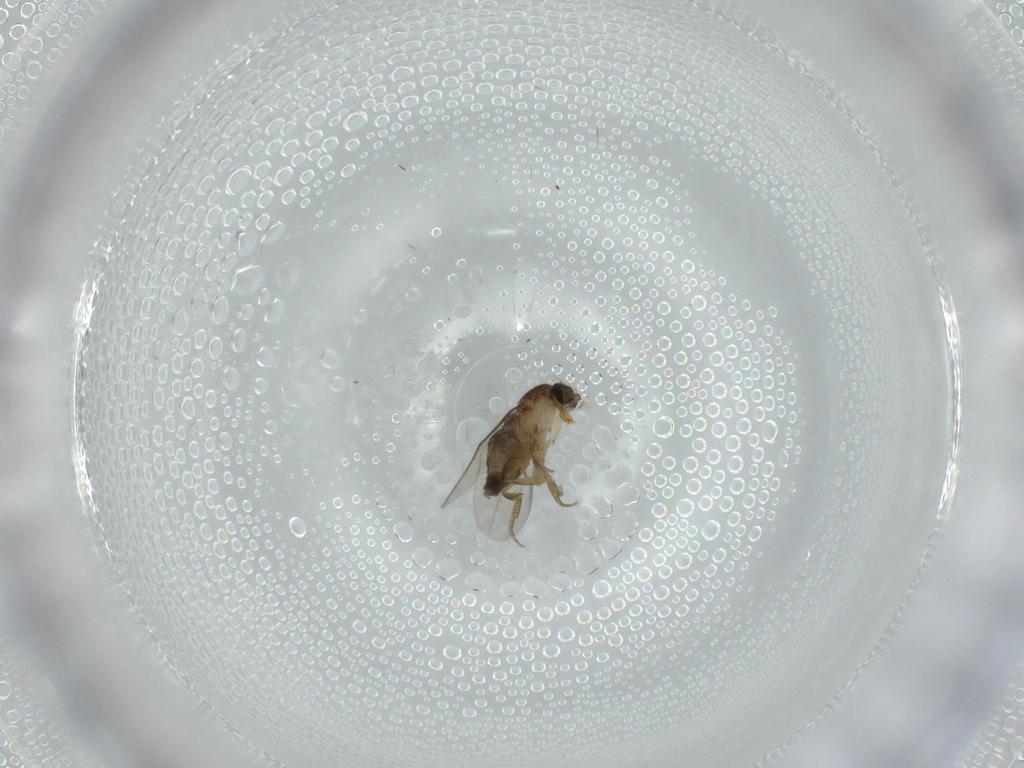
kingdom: Animalia
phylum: Arthropoda
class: Insecta
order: Diptera
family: Phoridae
